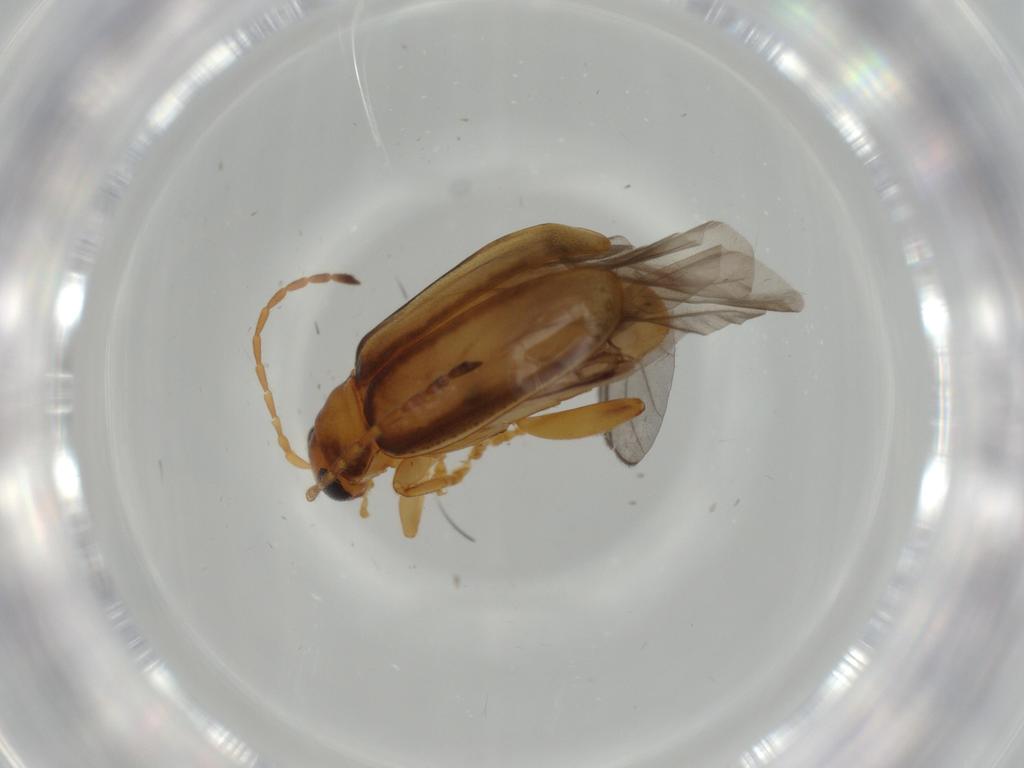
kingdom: Animalia
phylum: Arthropoda
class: Insecta
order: Coleoptera
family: Chrysomelidae
